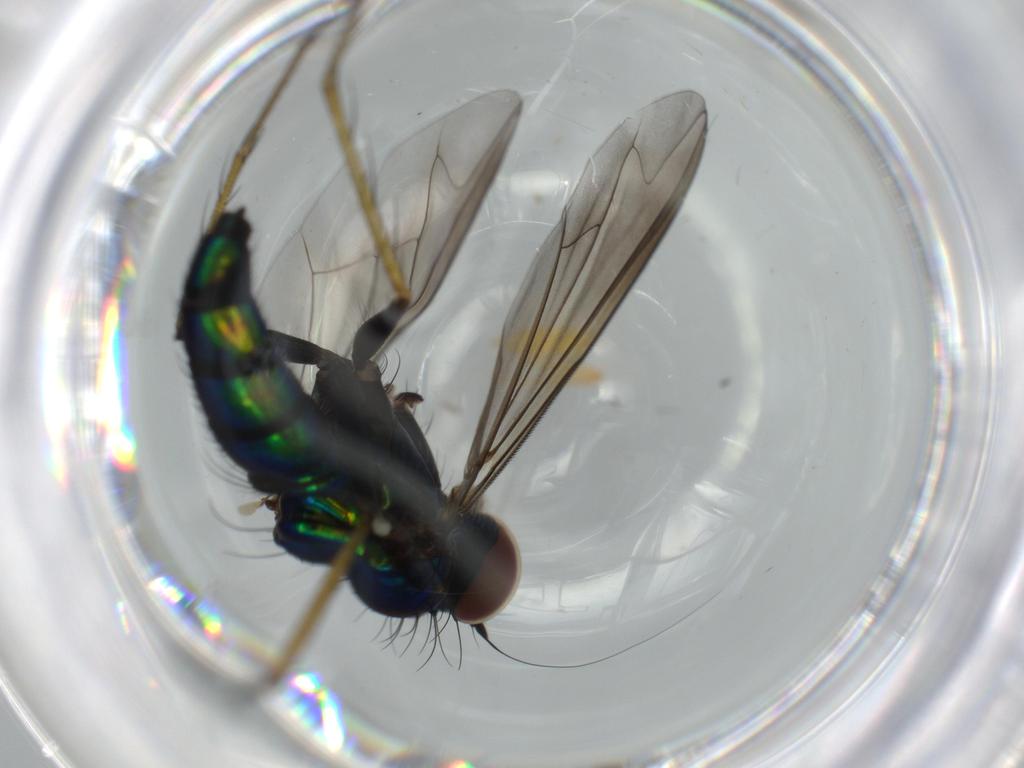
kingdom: Animalia
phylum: Arthropoda
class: Insecta
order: Diptera
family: Dolichopodidae
